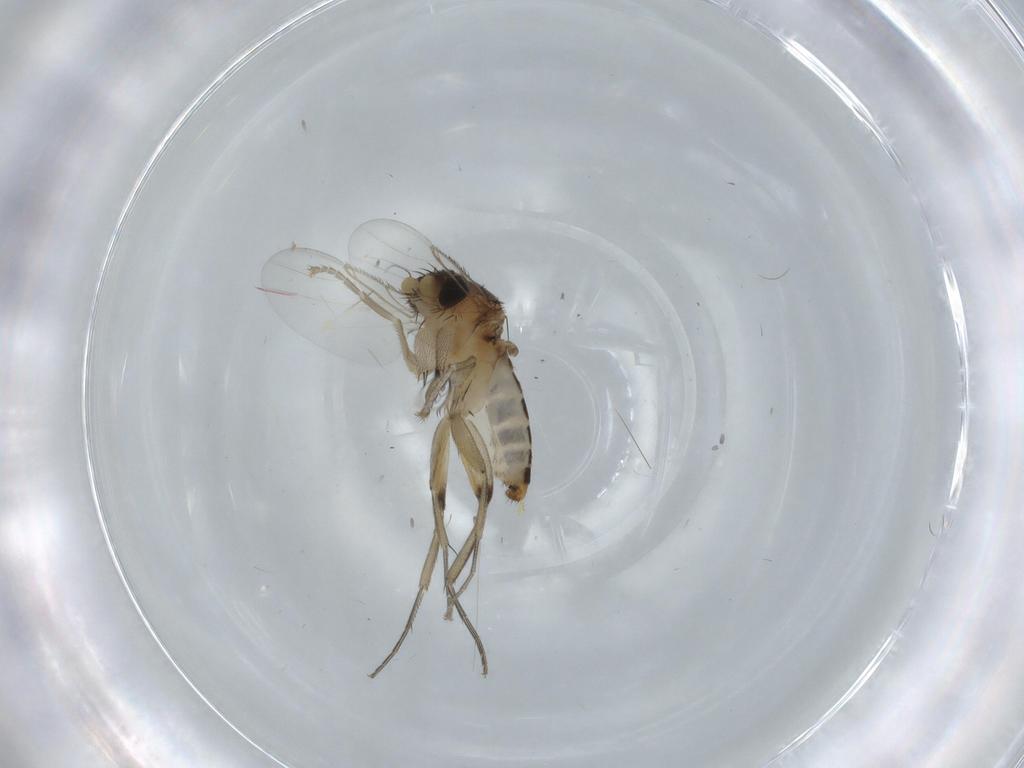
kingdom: Animalia
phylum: Arthropoda
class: Insecta
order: Diptera
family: Phoridae
